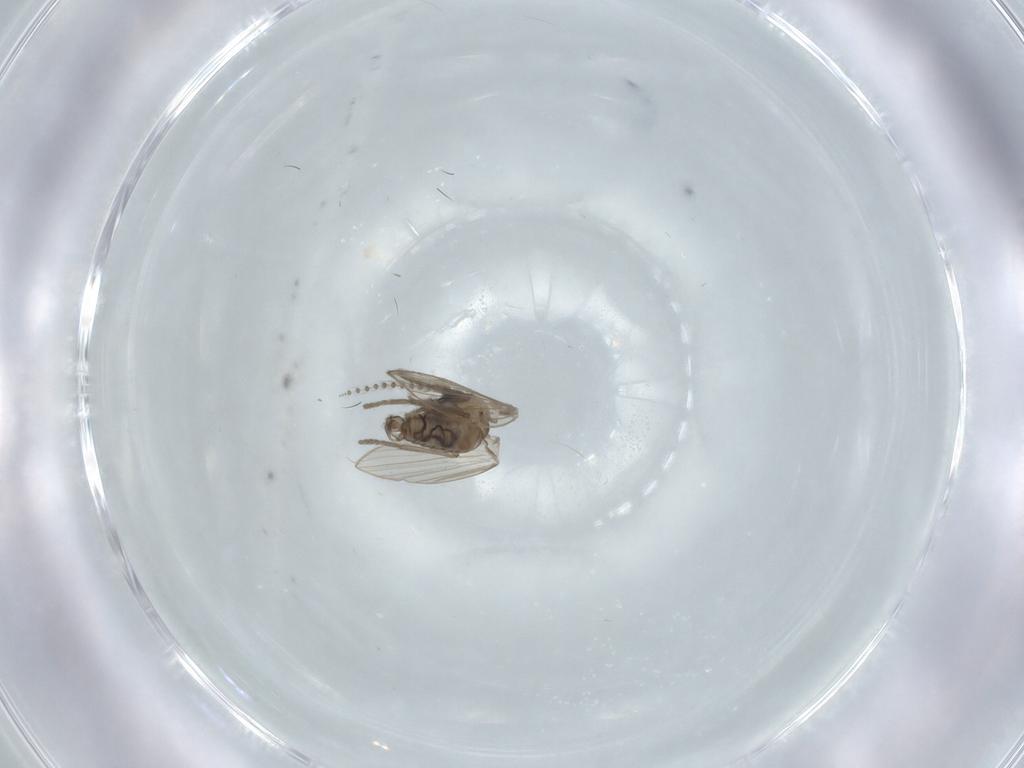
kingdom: Animalia
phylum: Arthropoda
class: Insecta
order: Diptera
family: Psychodidae
